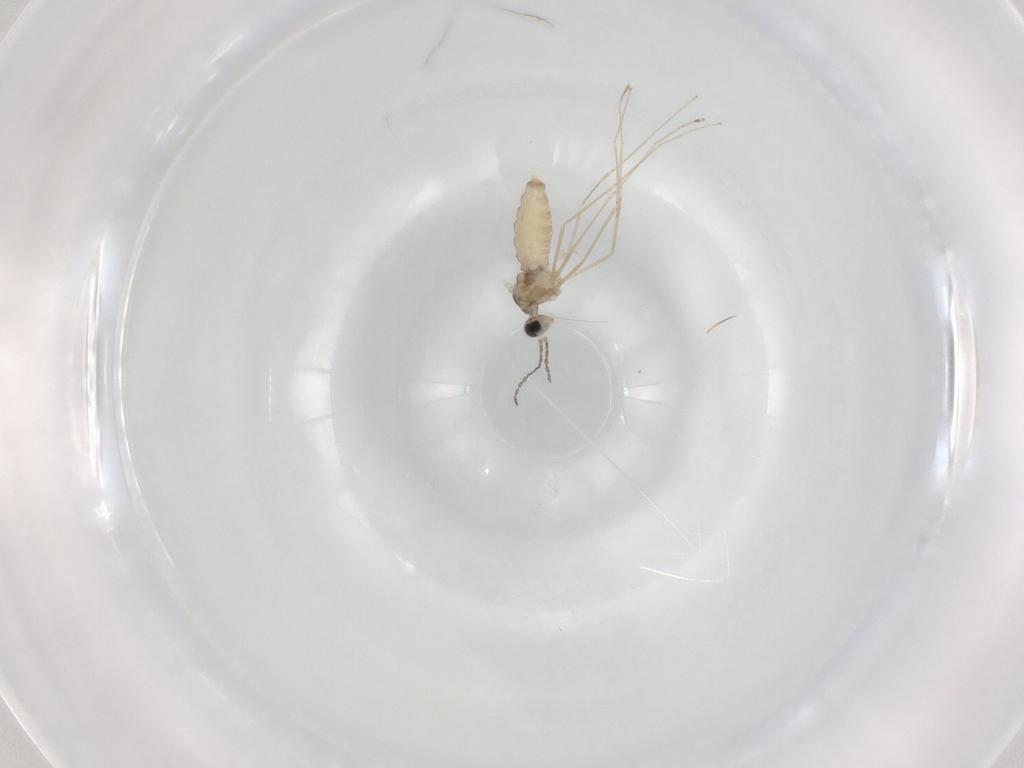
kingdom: Animalia
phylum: Arthropoda
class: Insecta
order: Diptera
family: Cecidomyiidae
